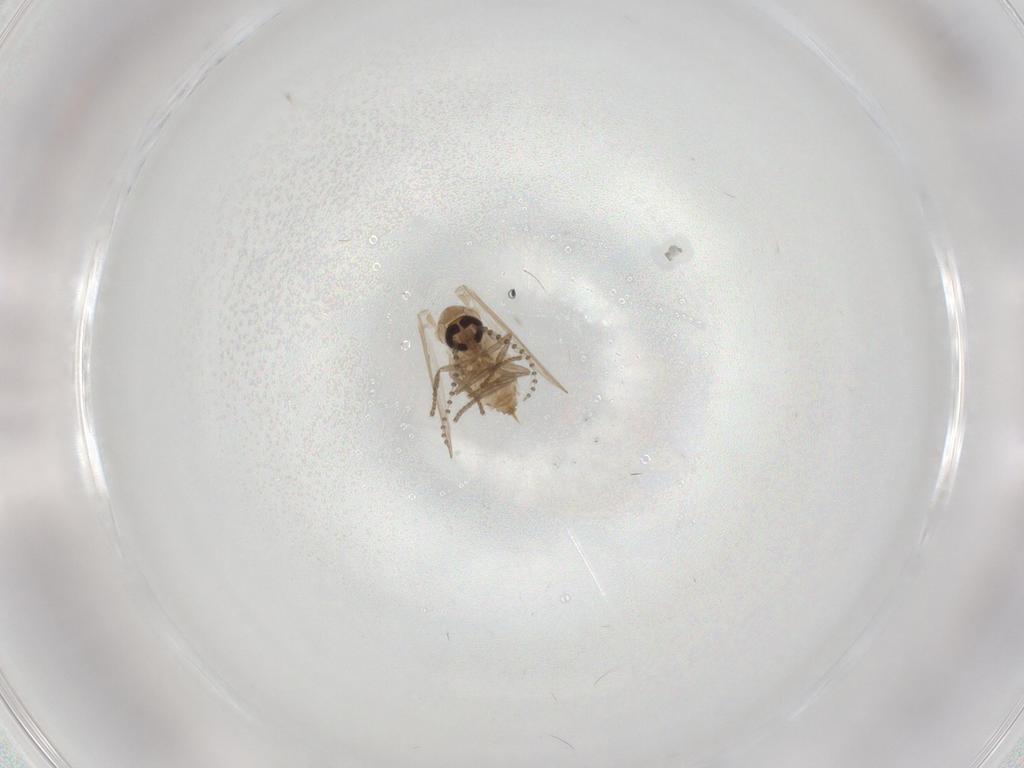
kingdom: Animalia
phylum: Arthropoda
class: Insecta
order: Diptera
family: Psychodidae
